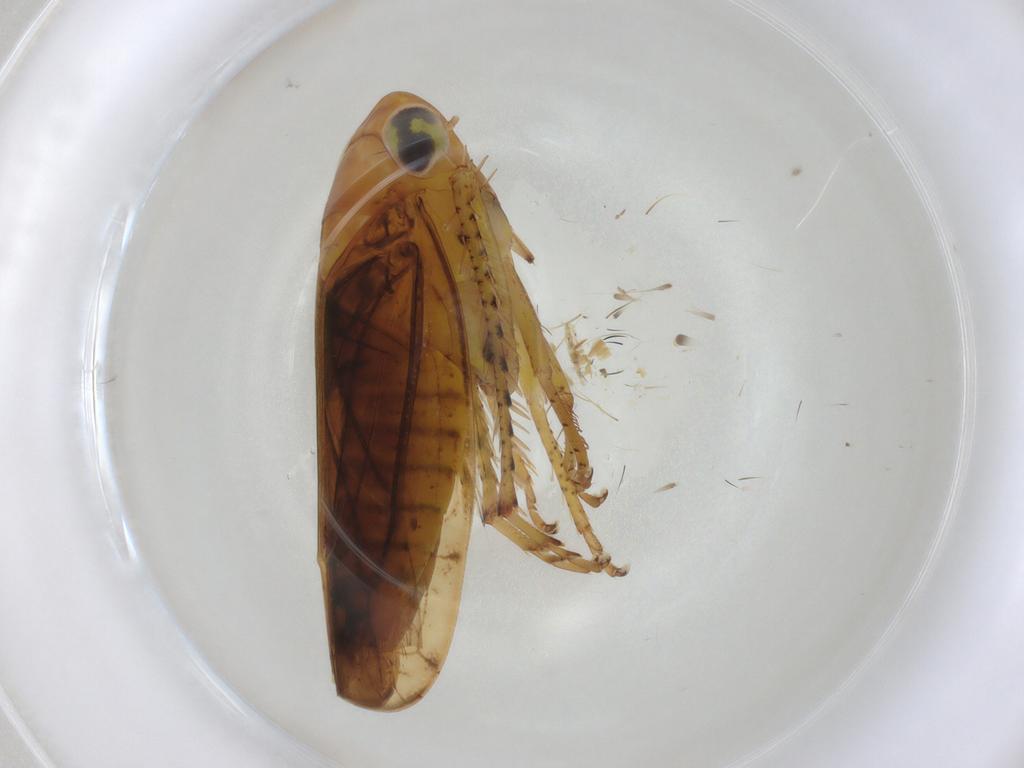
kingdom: Animalia
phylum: Arthropoda
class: Insecta
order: Hemiptera
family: Cicadellidae
